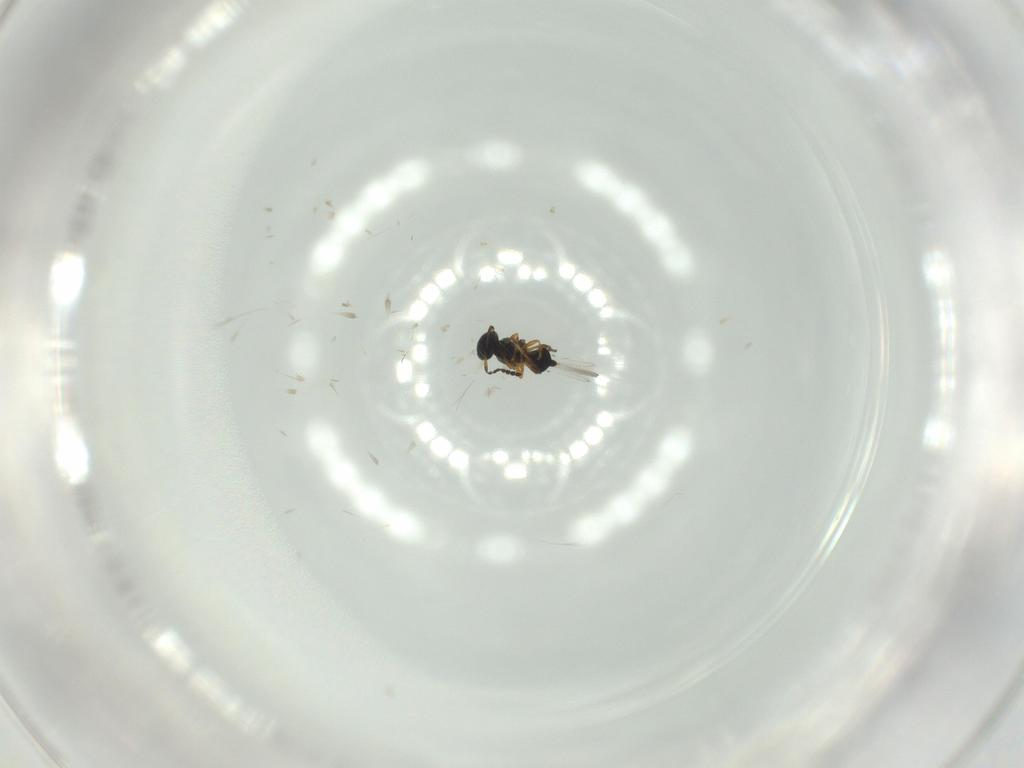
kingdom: Animalia
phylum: Arthropoda
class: Insecta
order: Hymenoptera
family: Platygastridae
